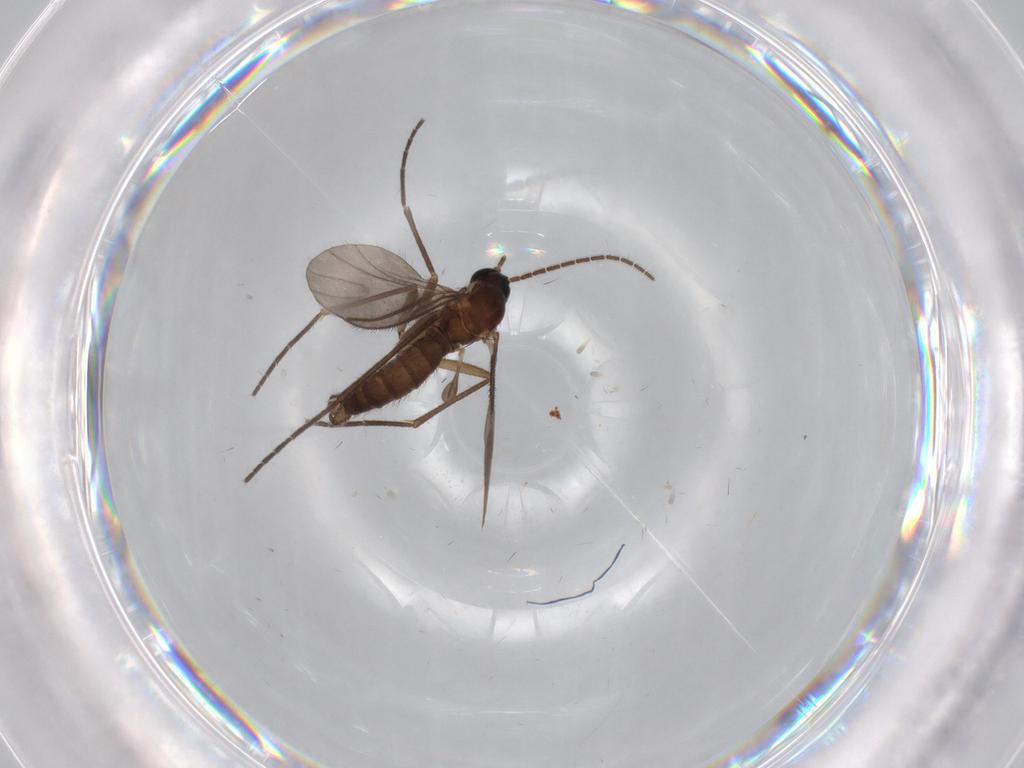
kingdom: Animalia
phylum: Arthropoda
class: Insecta
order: Diptera
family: Sciaridae
